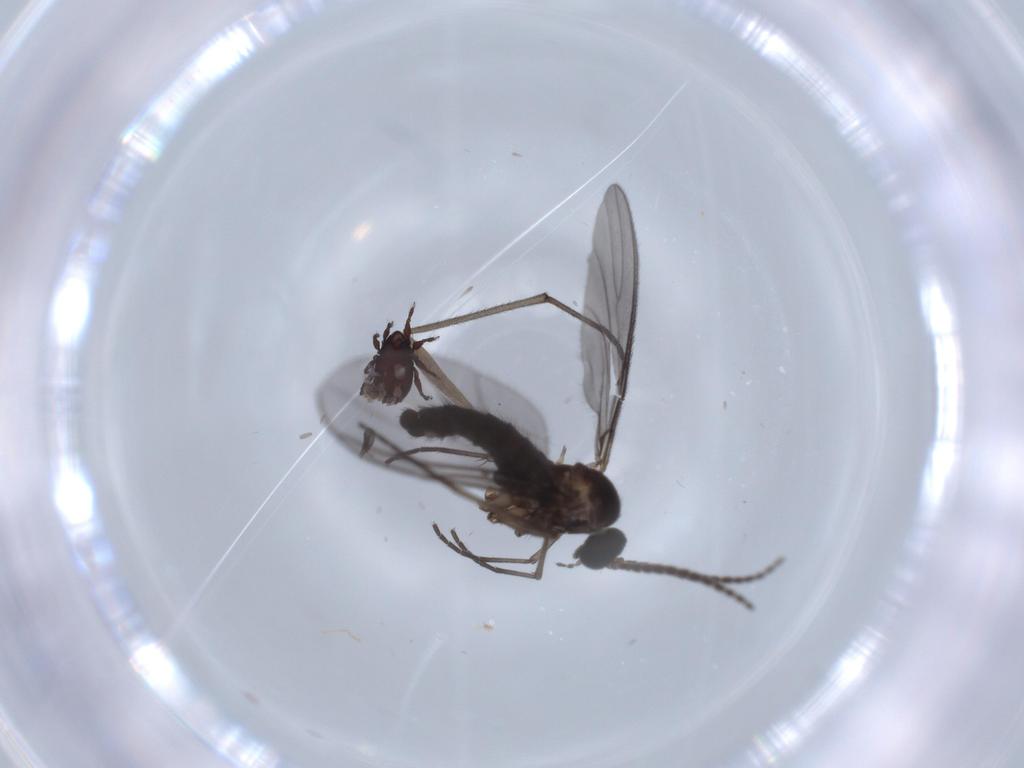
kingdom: Animalia
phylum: Arthropoda
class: Insecta
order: Diptera
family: Sciaridae
